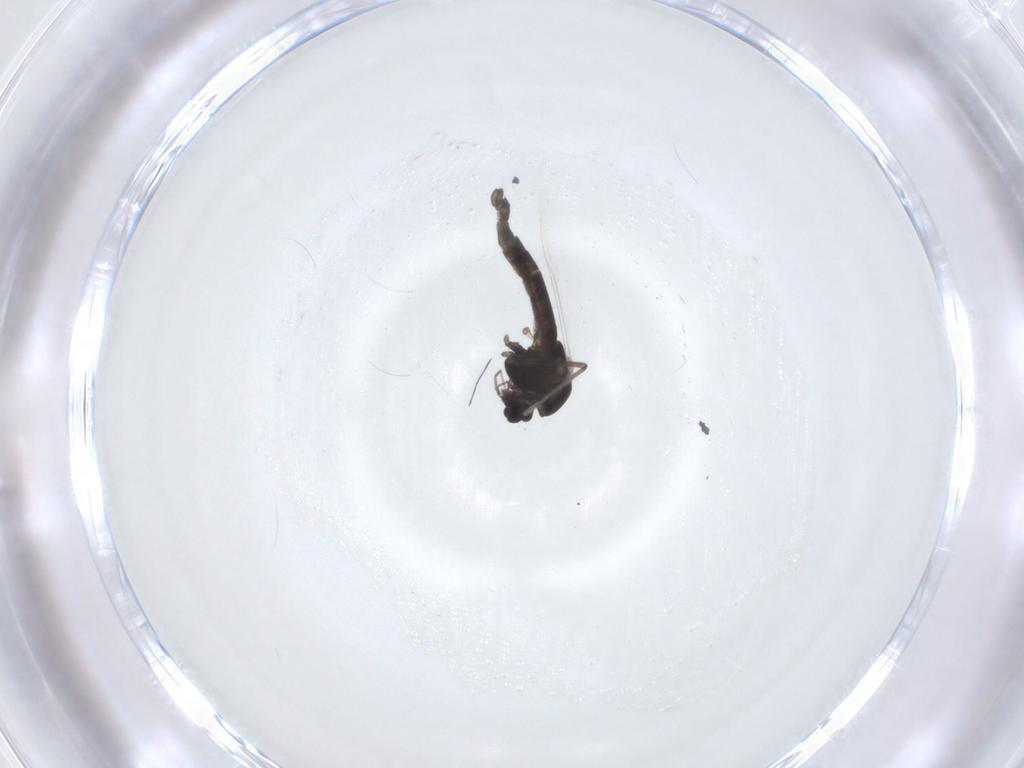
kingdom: Animalia
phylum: Arthropoda
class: Insecta
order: Diptera
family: Chironomidae
